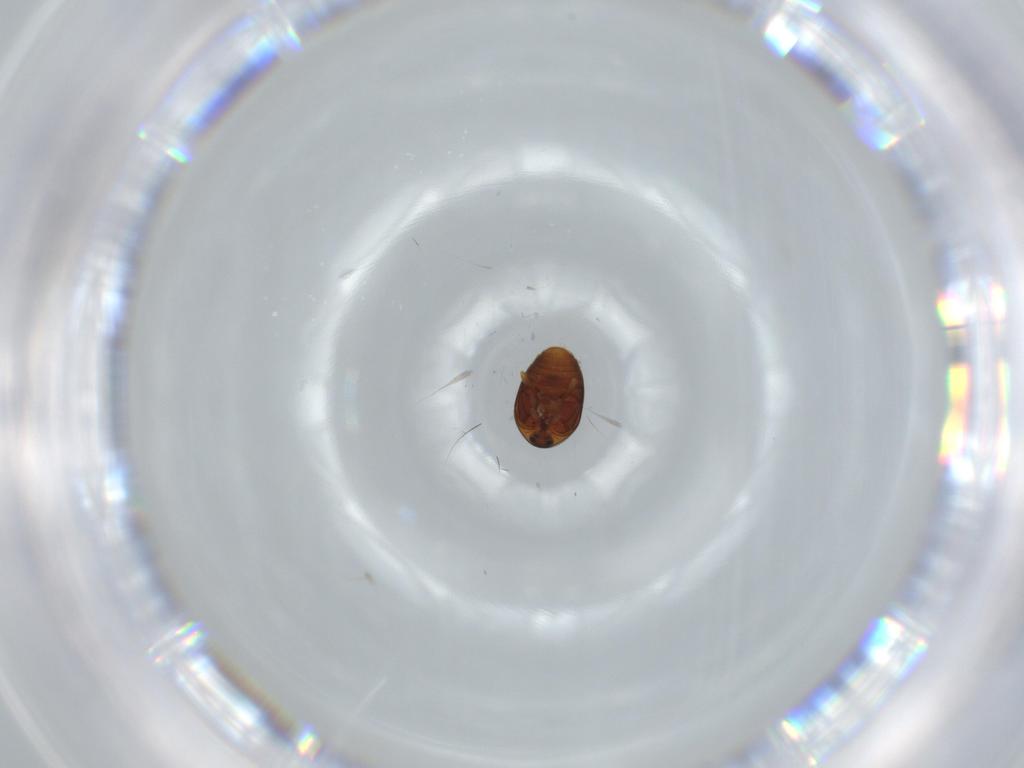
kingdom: Animalia
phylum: Arthropoda
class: Insecta
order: Coleoptera
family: Corylophidae
